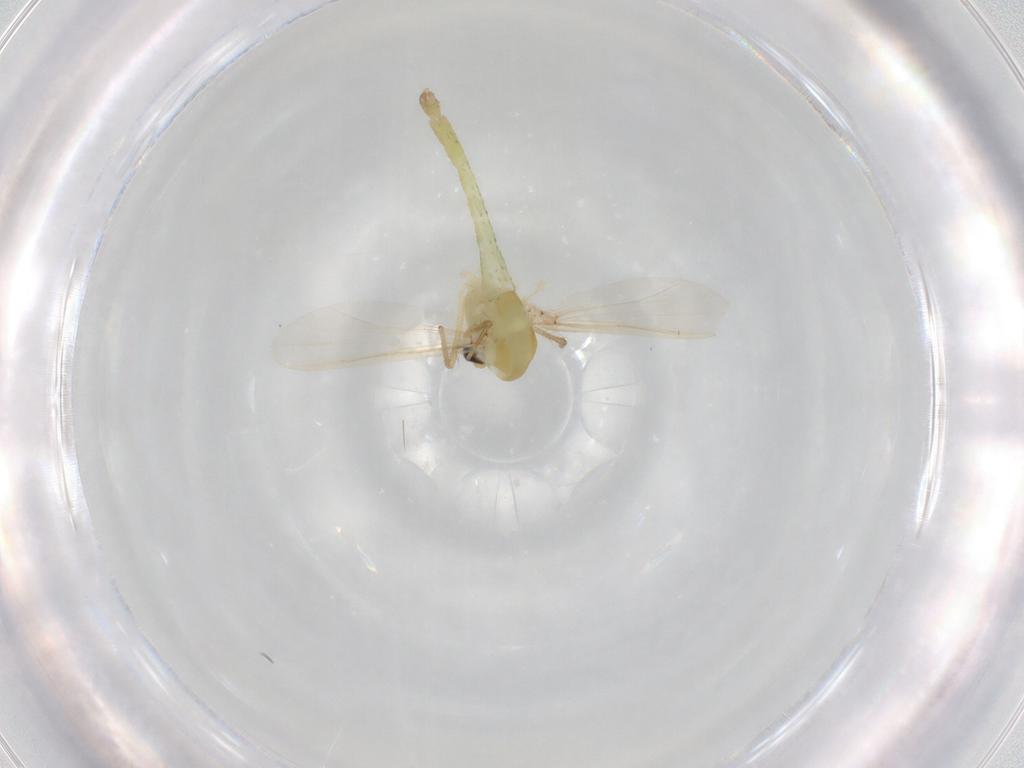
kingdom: Animalia
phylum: Arthropoda
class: Insecta
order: Diptera
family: Chironomidae
